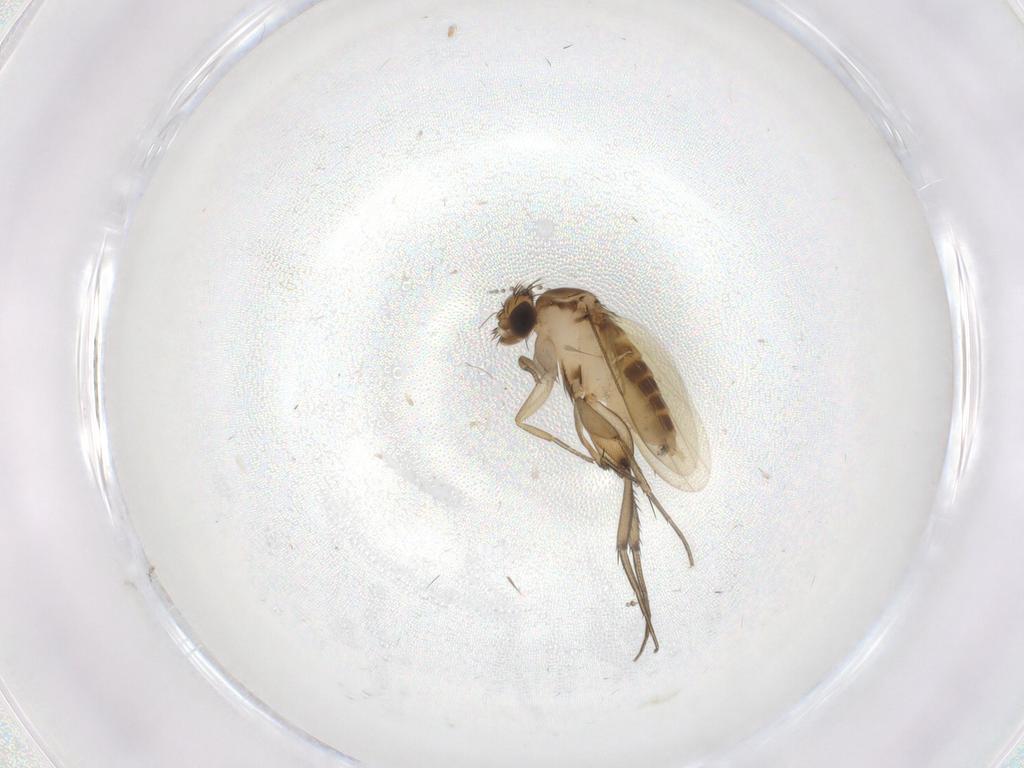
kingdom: Animalia
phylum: Arthropoda
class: Insecta
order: Diptera
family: Phoridae
